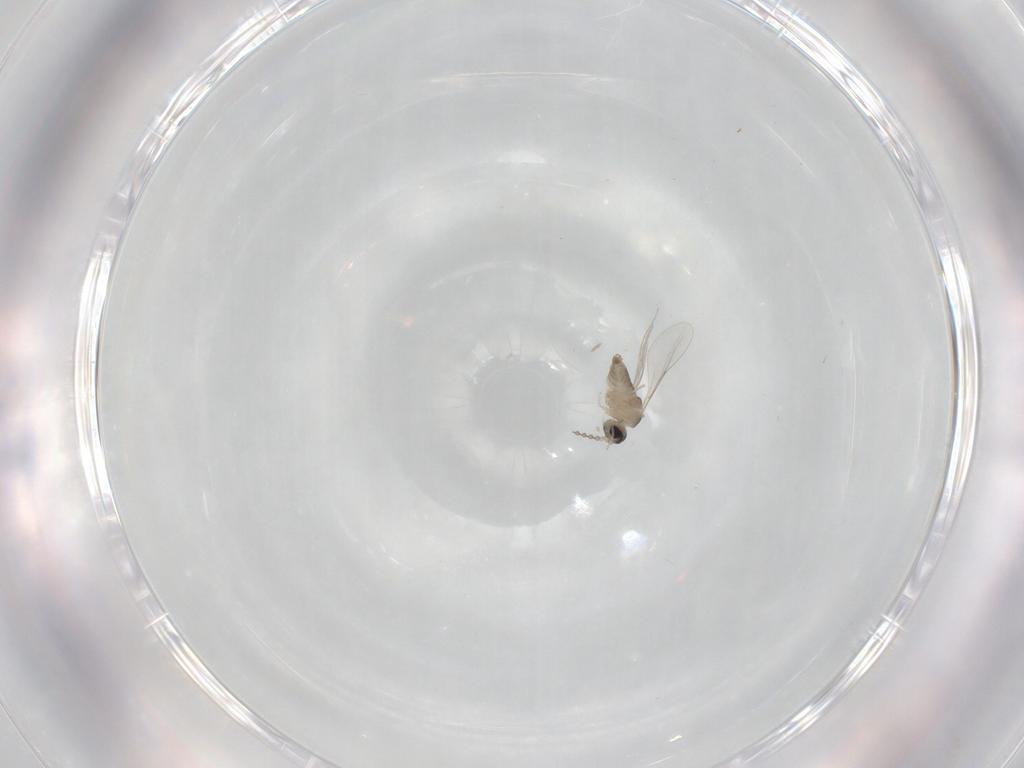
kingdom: Animalia
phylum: Arthropoda
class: Insecta
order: Diptera
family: Cecidomyiidae
